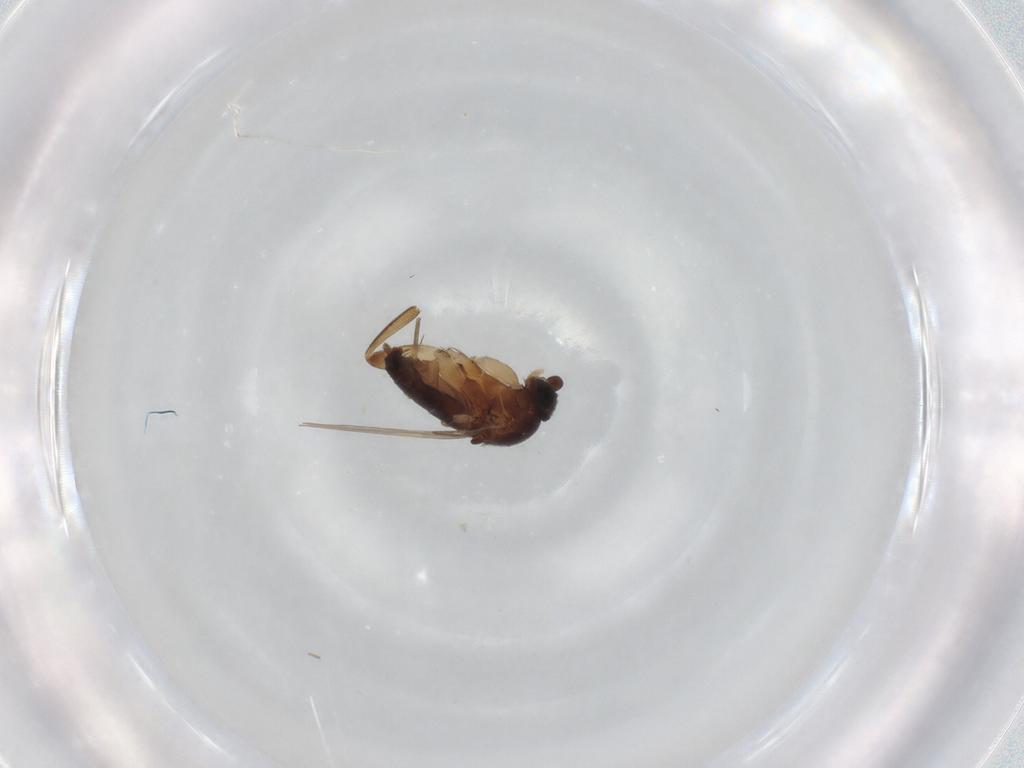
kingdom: Animalia
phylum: Arthropoda
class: Insecta
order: Diptera
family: Phoridae
